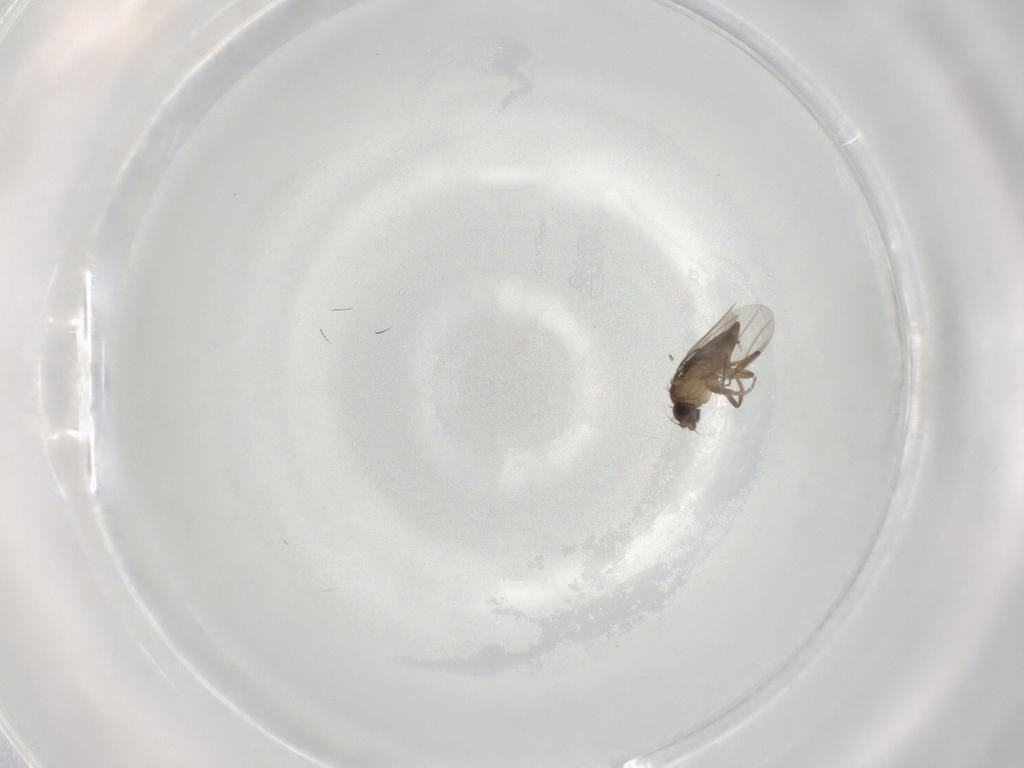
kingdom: Animalia
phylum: Arthropoda
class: Insecta
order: Diptera
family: Phoridae
